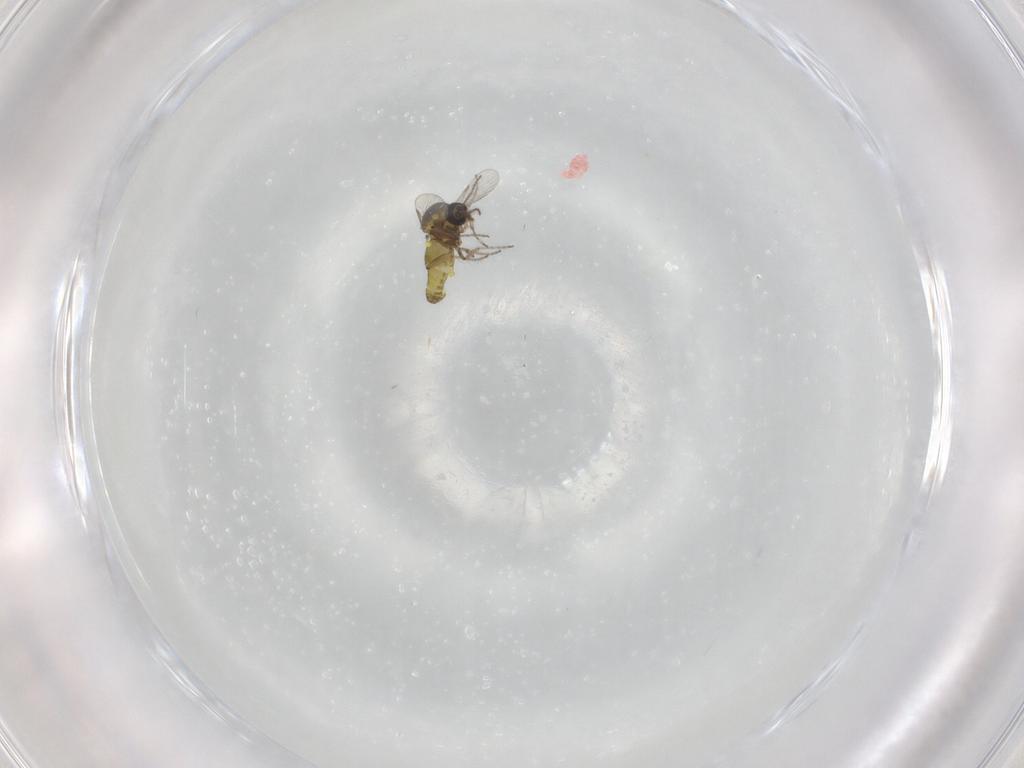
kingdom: Animalia
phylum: Arthropoda
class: Insecta
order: Diptera
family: Ceratopogonidae
